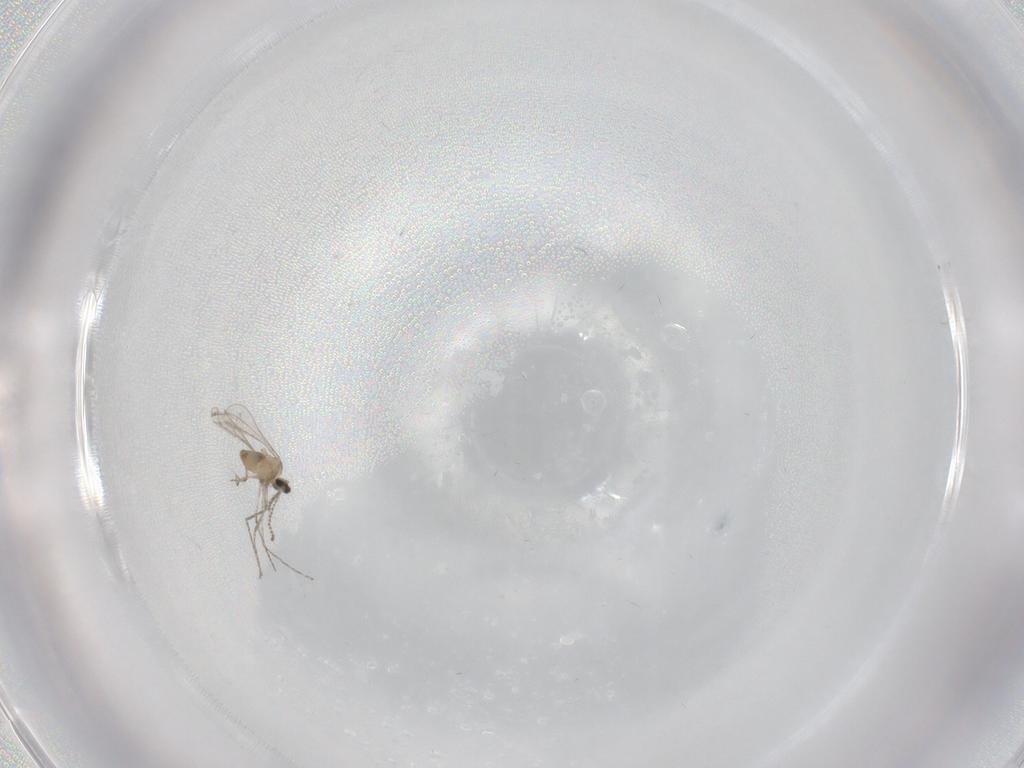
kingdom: Animalia
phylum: Arthropoda
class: Insecta
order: Diptera
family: Cecidomyiidae
